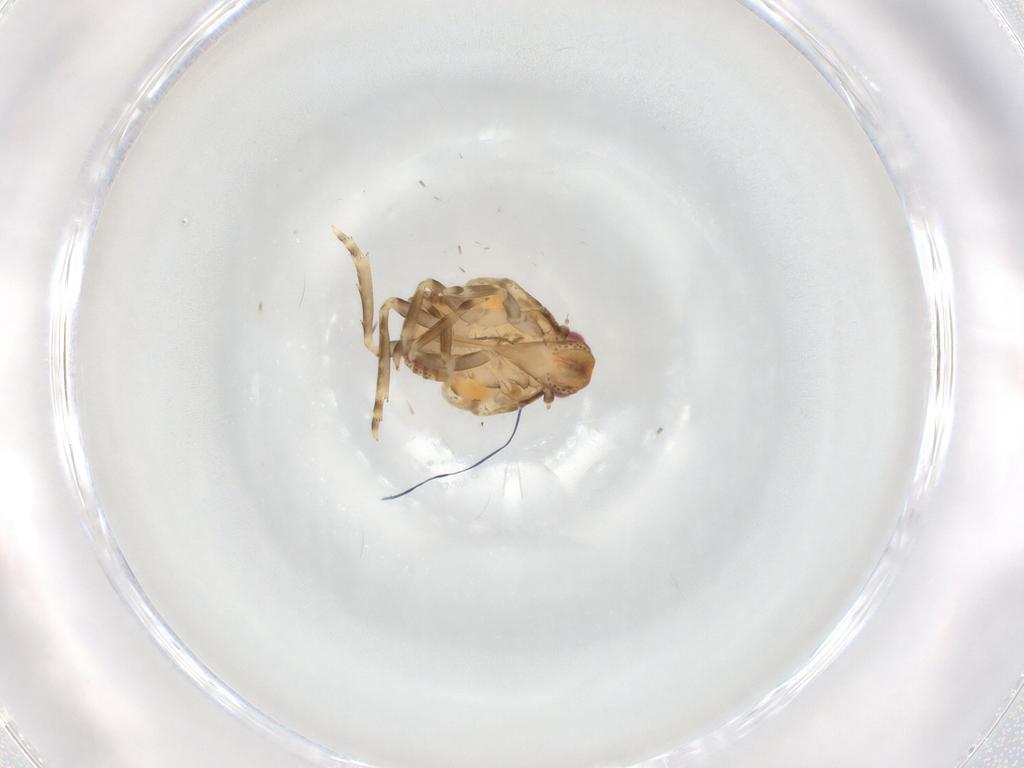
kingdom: Animalia
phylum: Arthropoda
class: Insecta
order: Hemiptera
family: Flatidae
